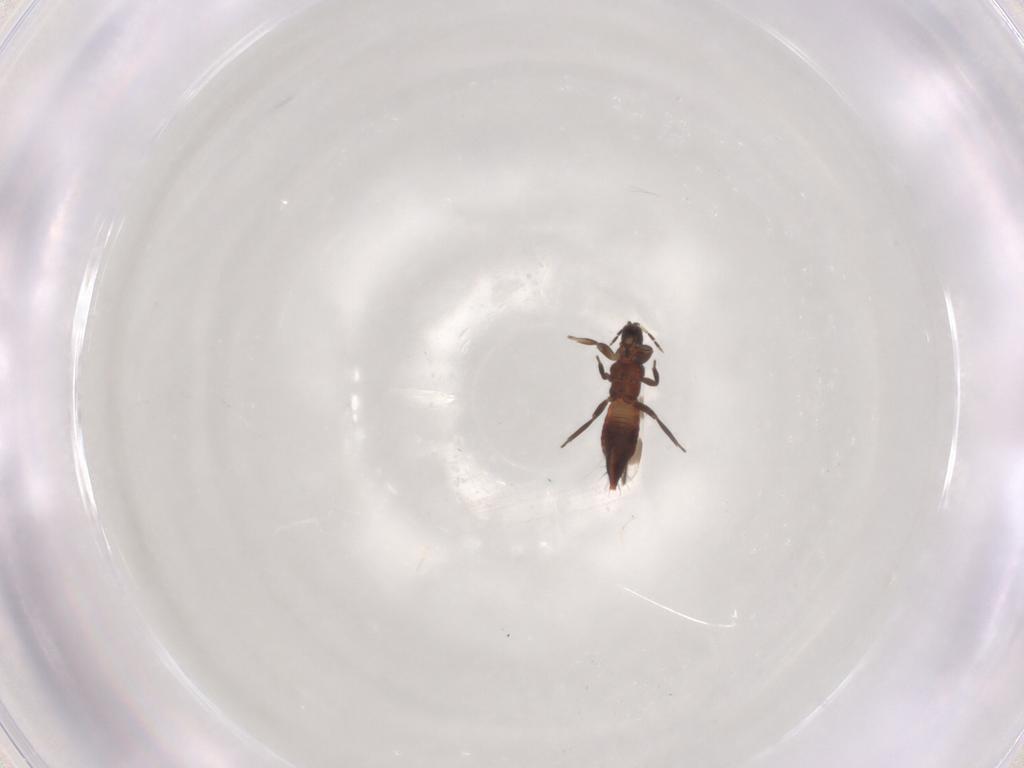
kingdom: Animalia
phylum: Arthropoda
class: Insecta
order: Thysanoptera
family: Aeolothripidae
